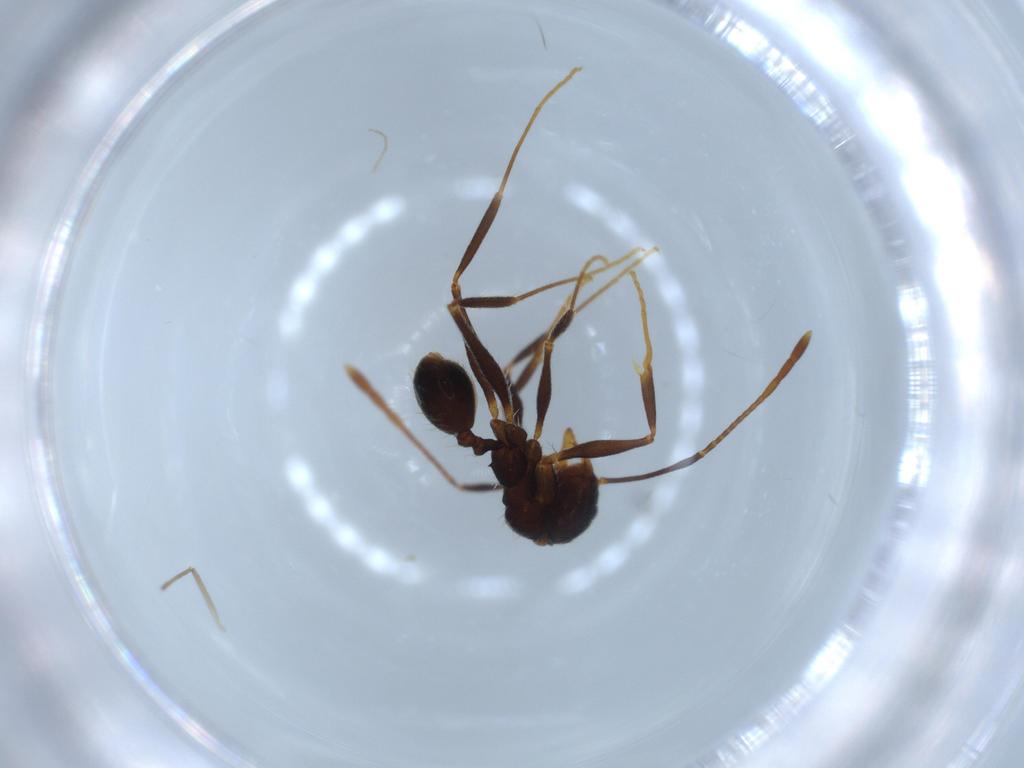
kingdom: Animalia
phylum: Arthropoda
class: Insecta
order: Hymenoptera
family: Formicidae
